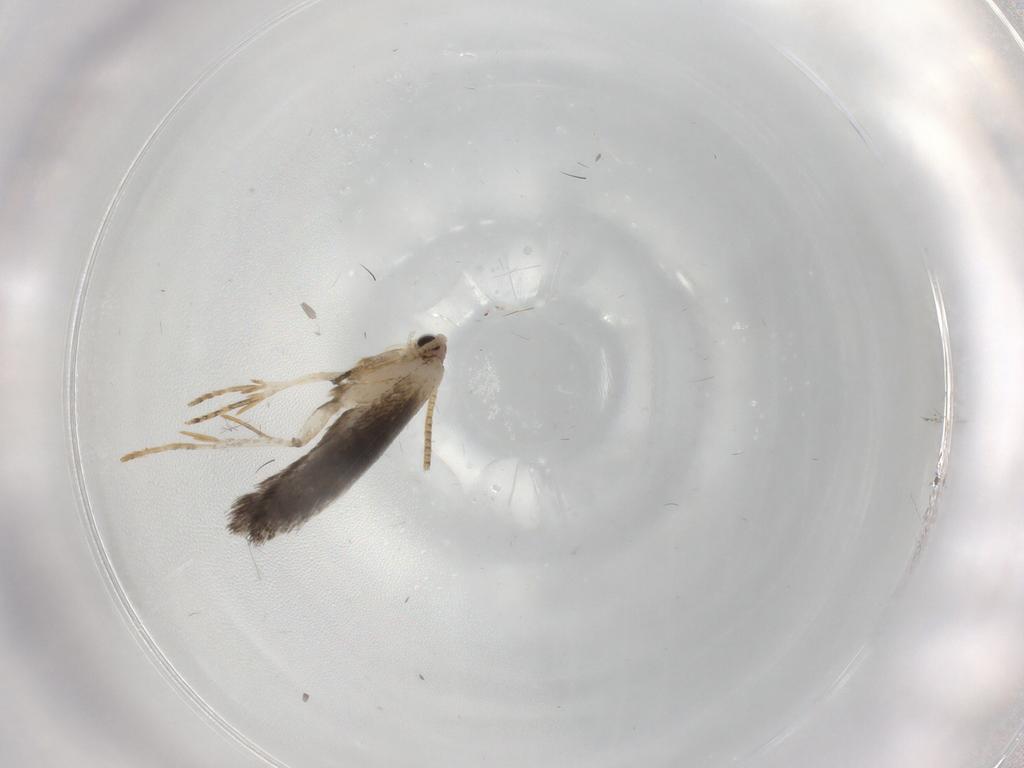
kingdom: Animalia
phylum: Arthropoda
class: Insecta
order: Lepidoptera
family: Tineidae
